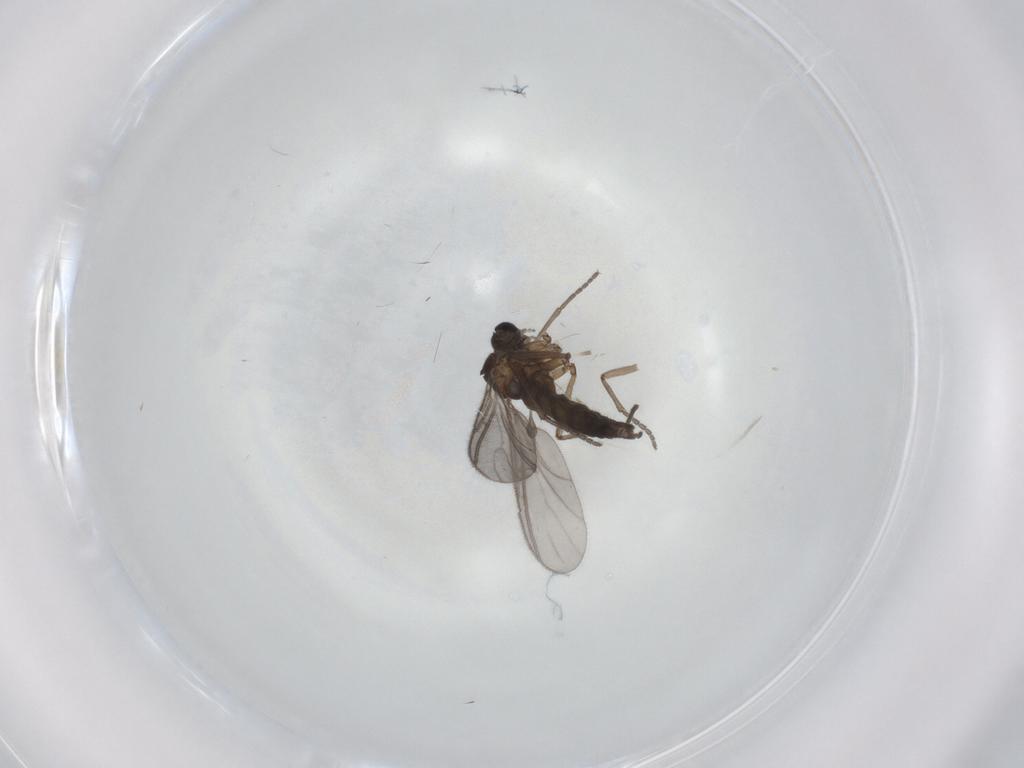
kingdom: Animalia
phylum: Arthropoda
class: Insecta
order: Diptera
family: Sciaridae
